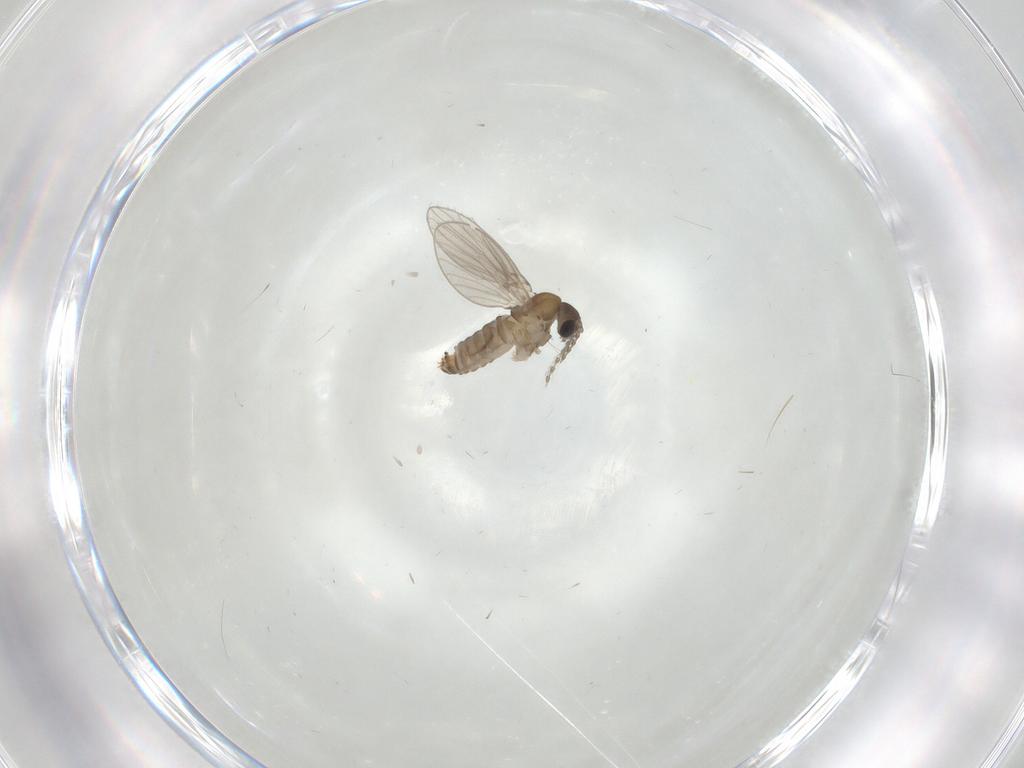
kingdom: Animalia
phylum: Arthropoda
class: Insecta
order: Diptera
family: Psychodidae
